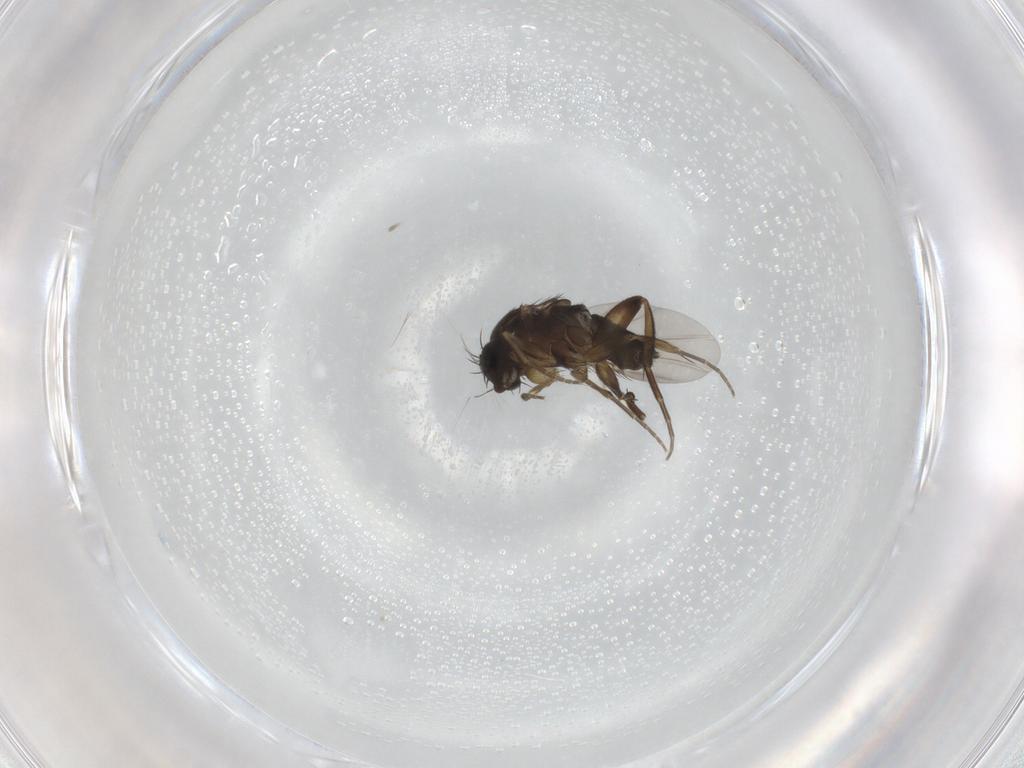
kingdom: Animalia
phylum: Arthropoda
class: Insecta
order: Diptera
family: Phoridae
